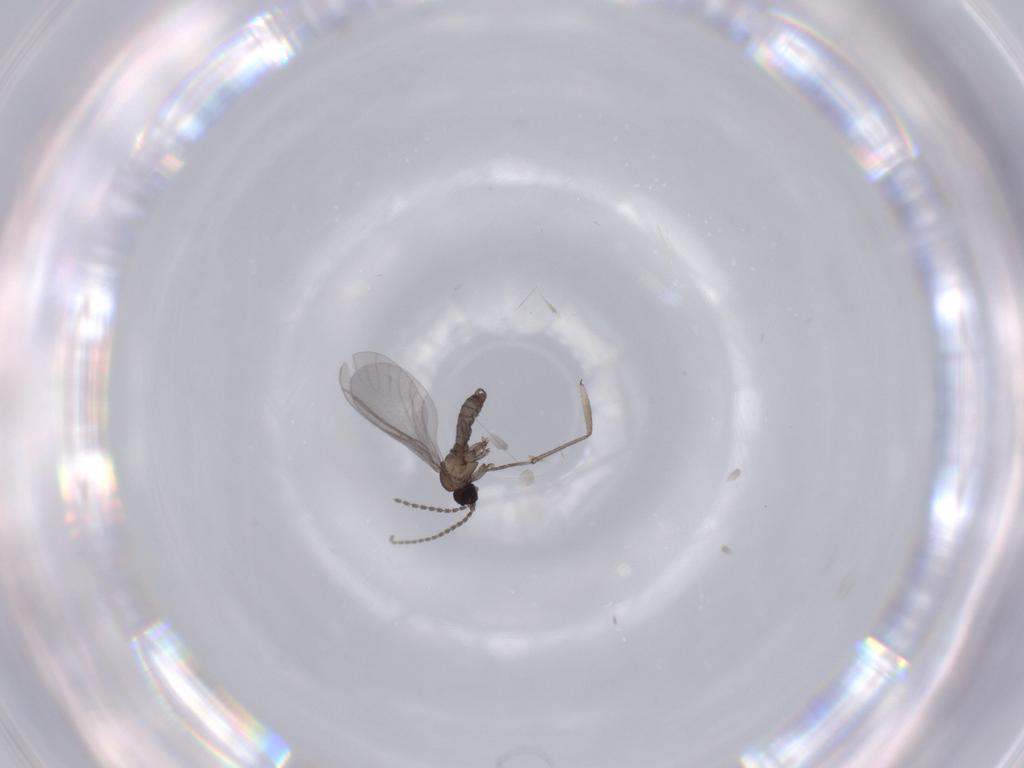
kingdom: Animalia
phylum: Arthropoda
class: Insecta
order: Diptera
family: Sciaridae
